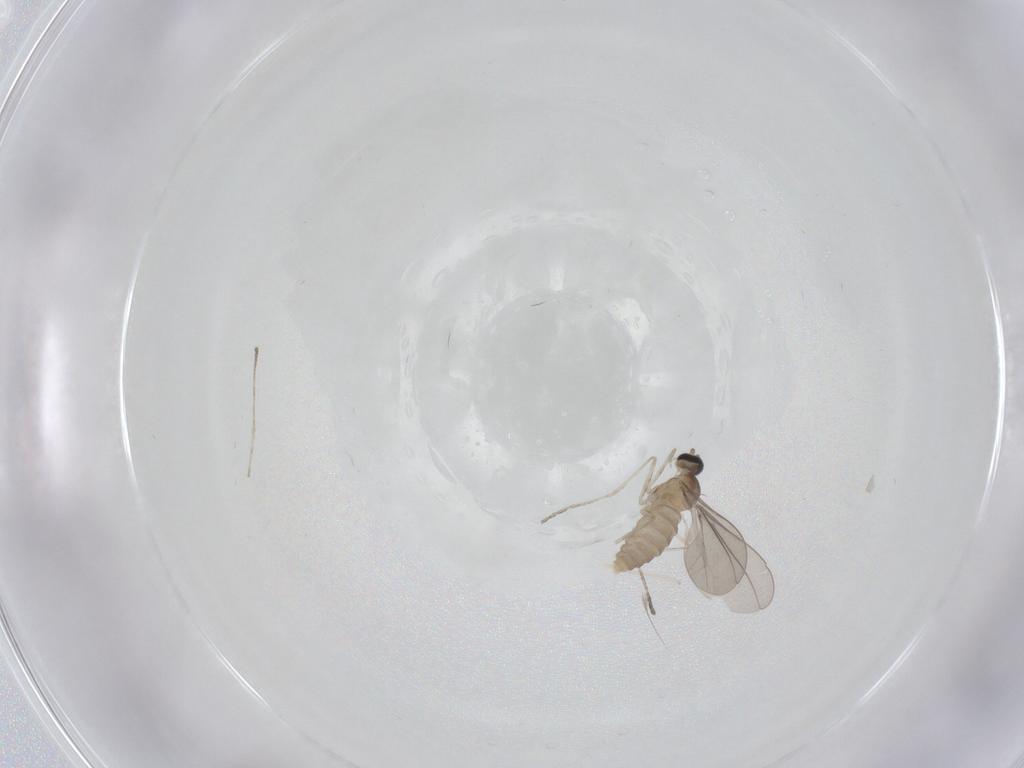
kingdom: Animalia
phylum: Arthropoda
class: Insecta
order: Diptera
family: Cecidomyiidae
